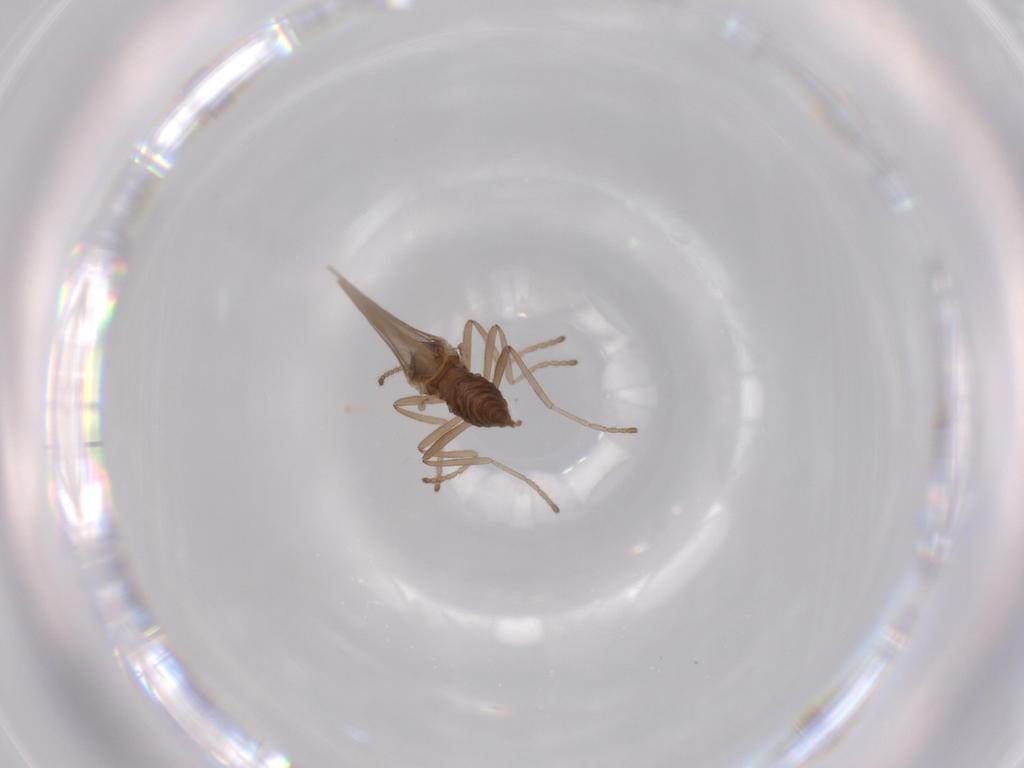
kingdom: Animalia
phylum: Arthropoda
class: Insecta
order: Diptera
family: Cecidomyiidae
